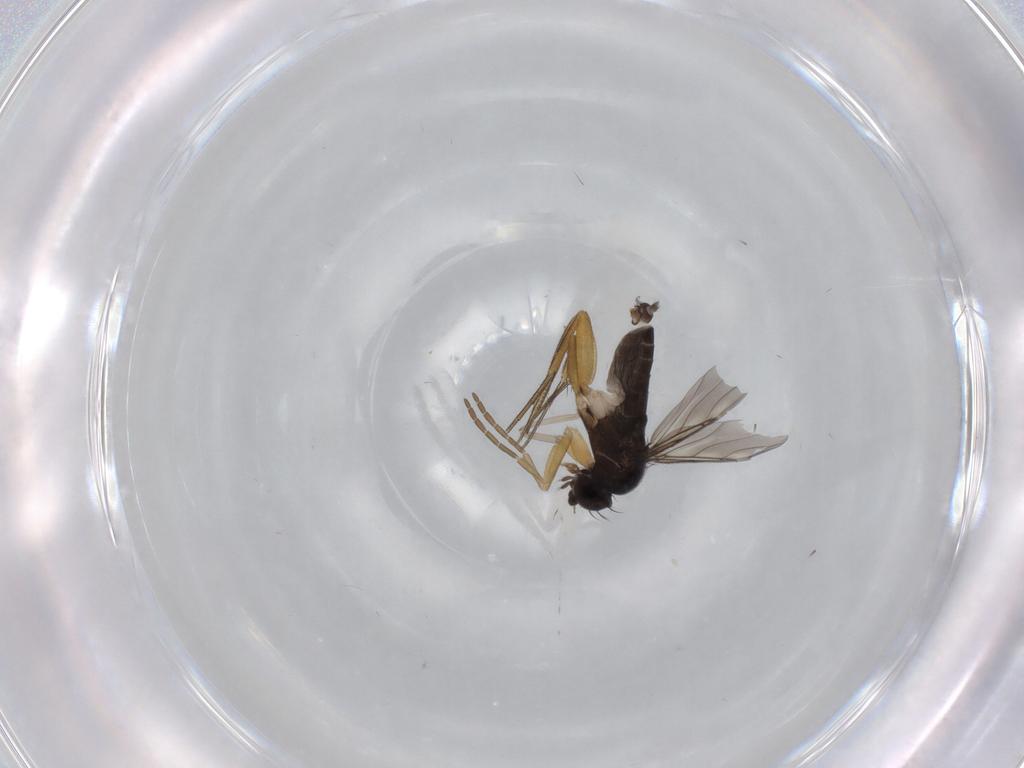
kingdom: Animalia
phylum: Arthropoda
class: Insecta
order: Diptera
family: Cecidomyiidae
